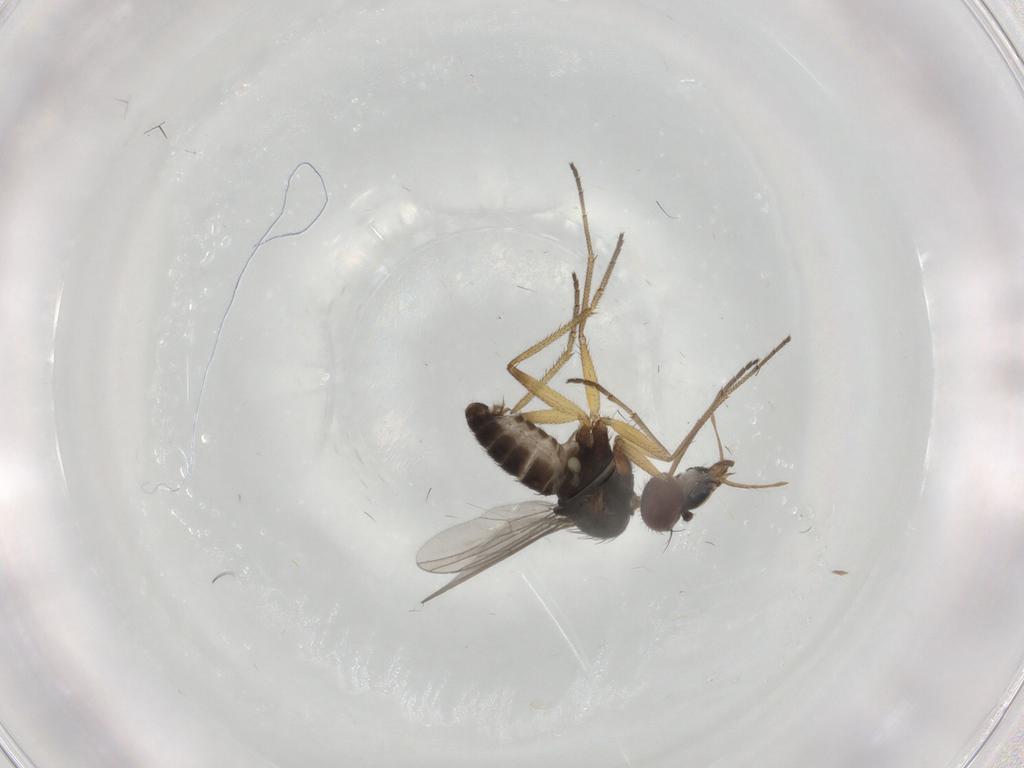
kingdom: Animalia
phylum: Arthropoda
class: Insecta
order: Diptera
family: Dolichopodidae
